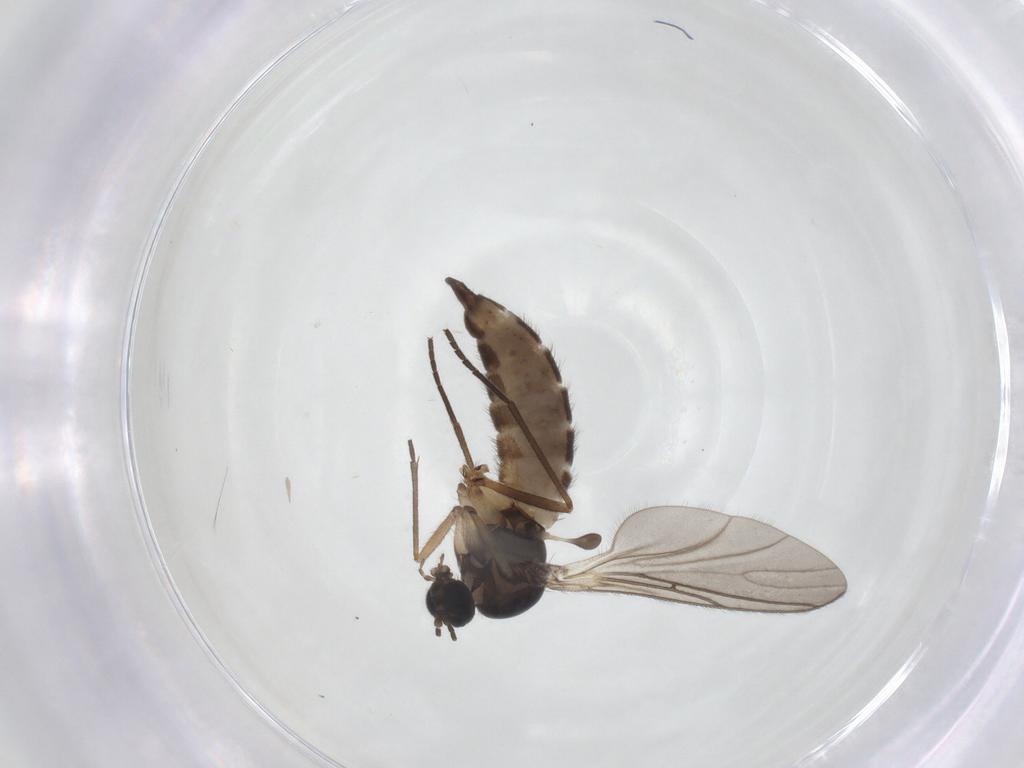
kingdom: Animalia
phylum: Arthropoda
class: Insecta
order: Diptera
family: Sciaridae
